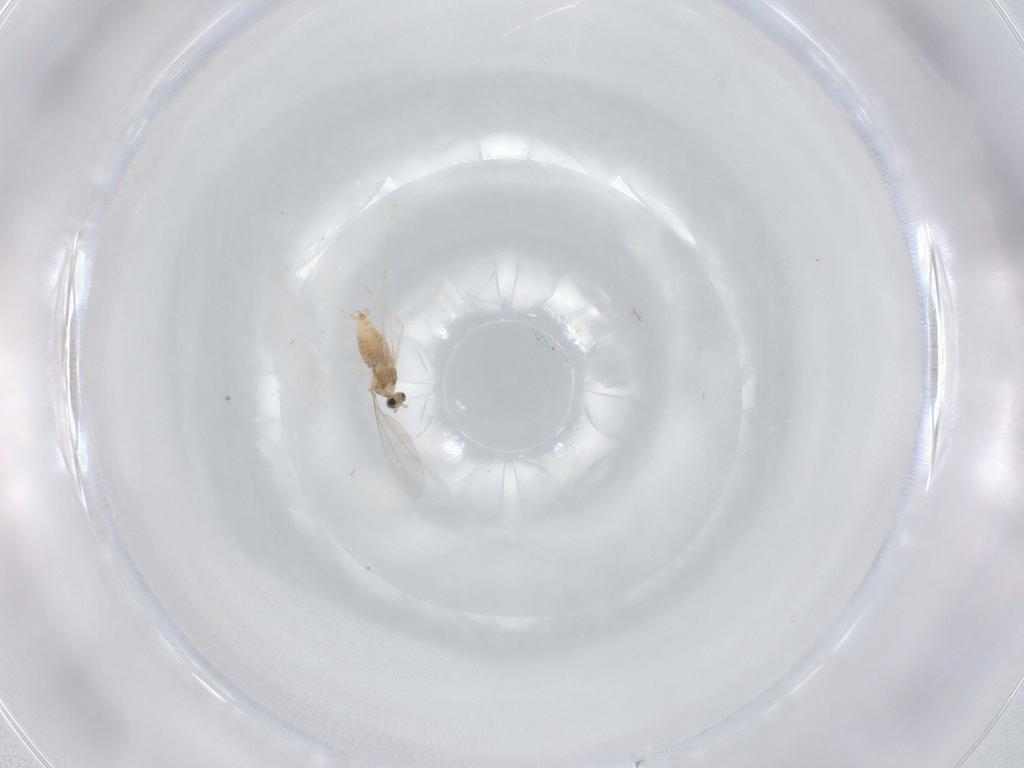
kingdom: Animalia
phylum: Arthropoda
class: Insecta
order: Diptera
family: Cecidomyiidae
